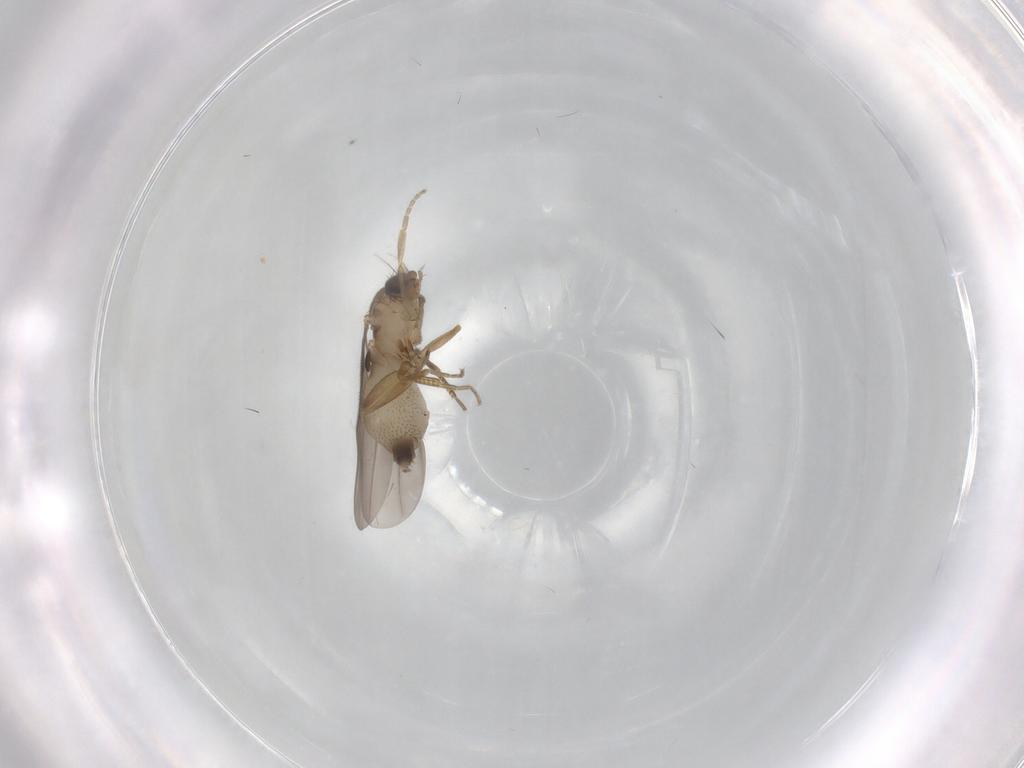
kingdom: Animalia
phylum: Arthropoda
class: Insecta
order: Diptera
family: Phoridae
